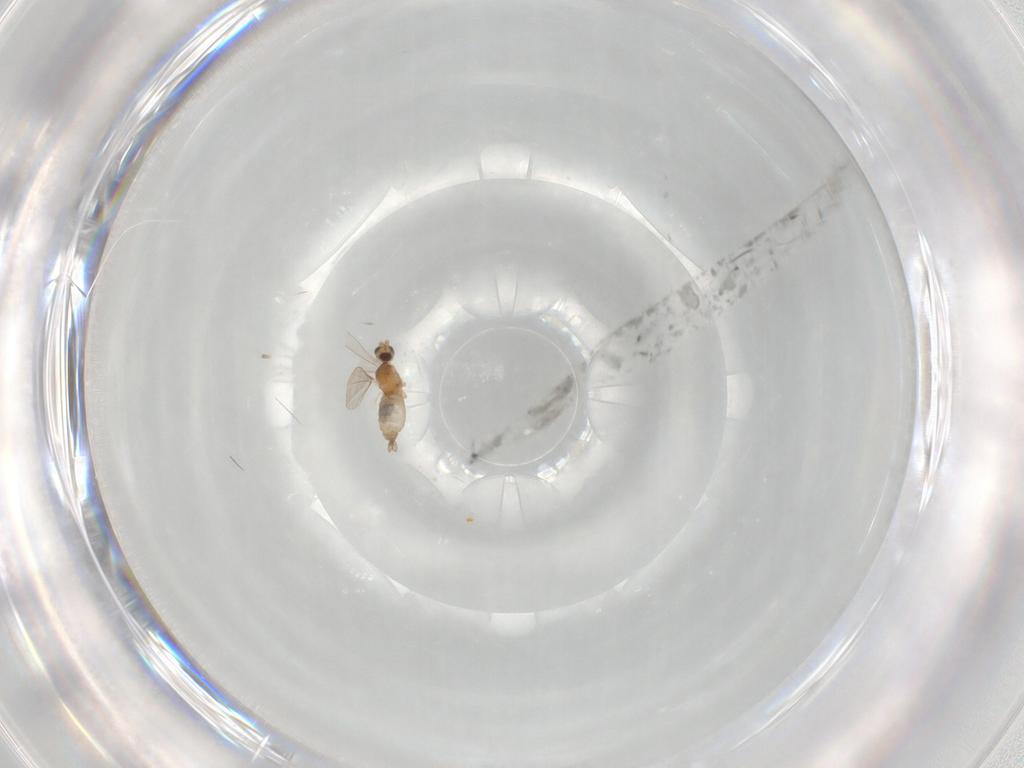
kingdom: Animalia
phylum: Arthropoda
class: Insecta
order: Diptera
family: Cecidomyiidae
